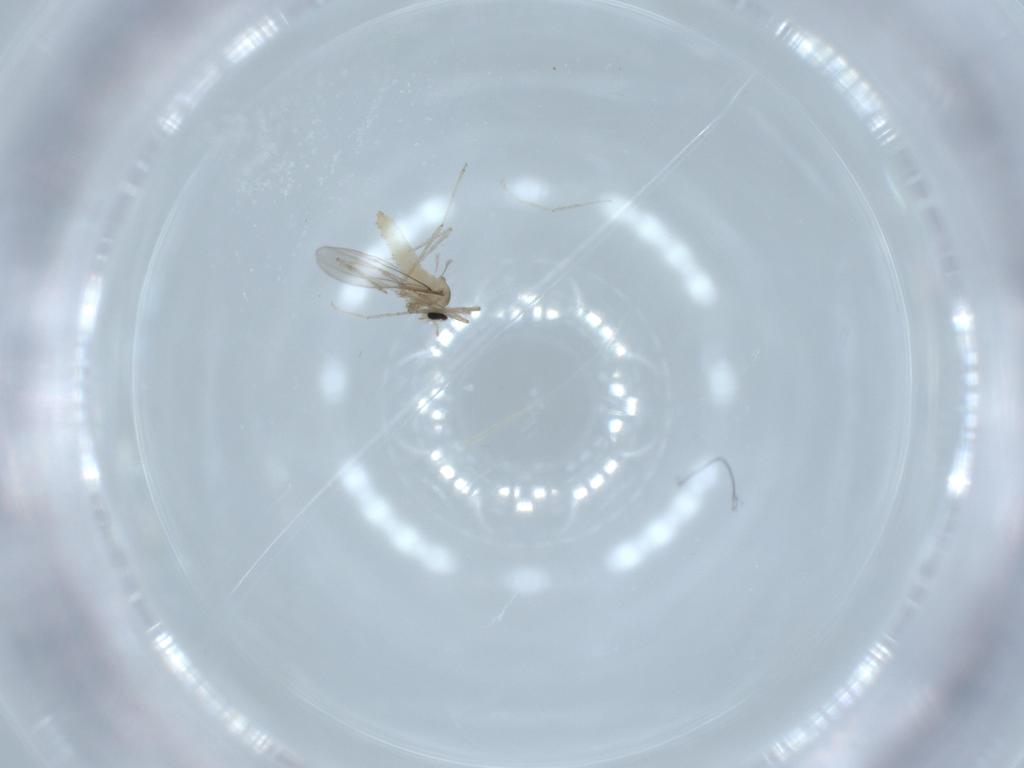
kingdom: Animalia
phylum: Arthropoda
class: Insecta
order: Diptera
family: Cecidomyiidae
